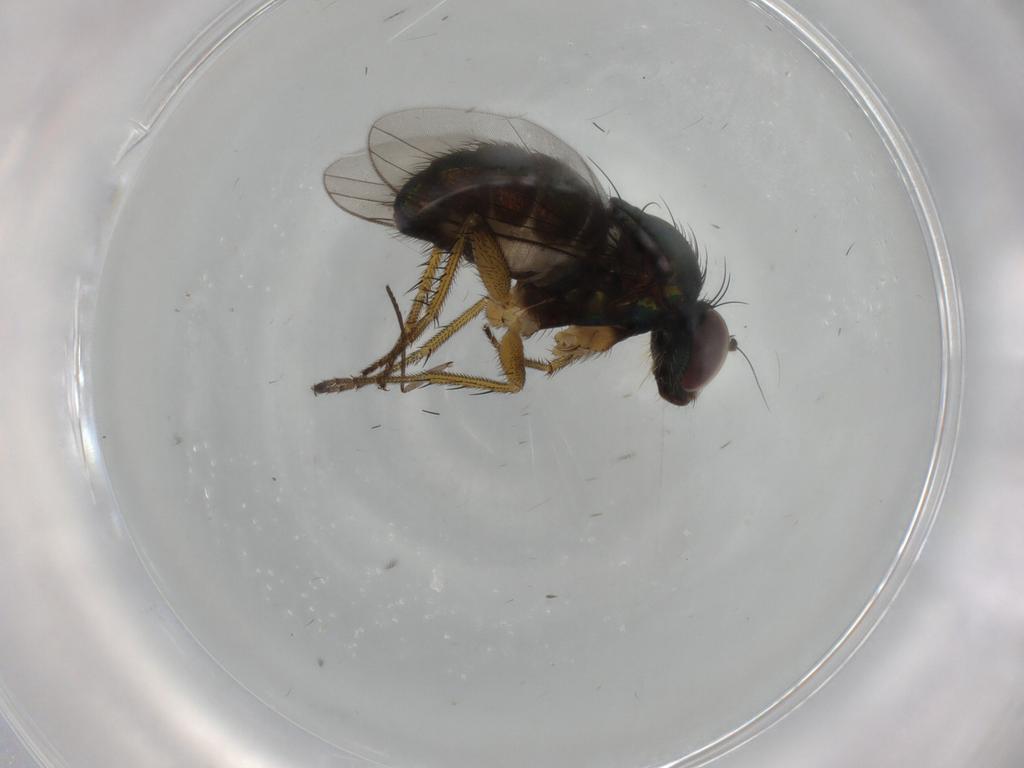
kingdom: Animalia
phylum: Arthropoda
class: Insecta
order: Diptera
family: Dolichopodidae
